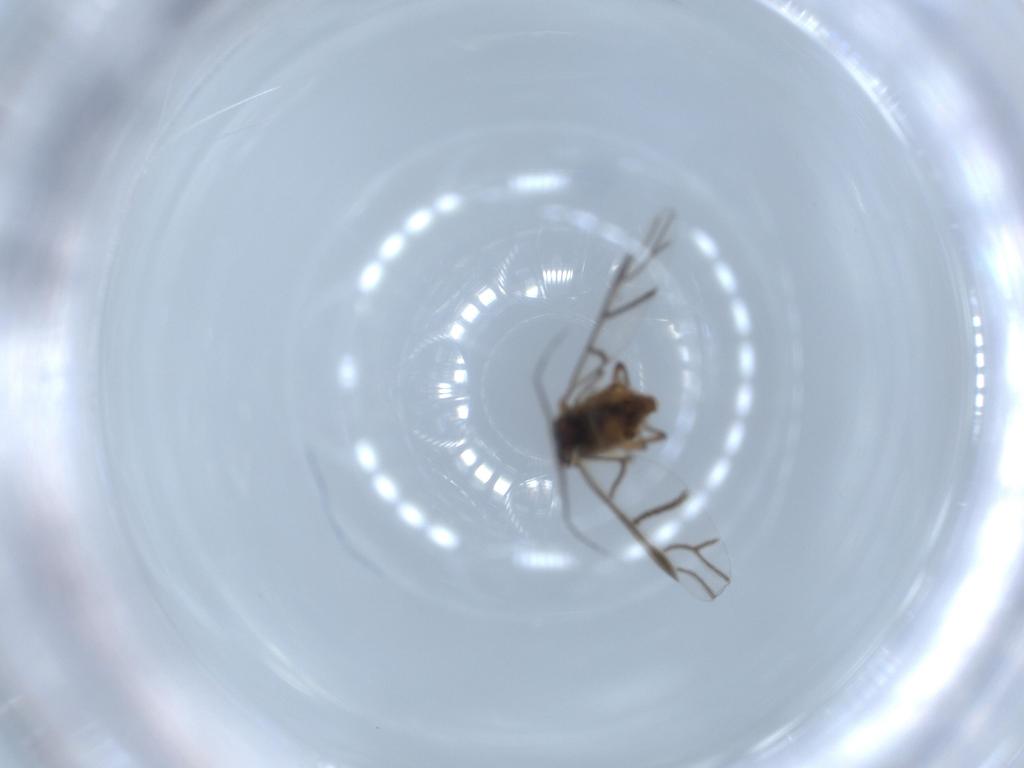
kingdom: Animalia
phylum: Arthropoda
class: Insecta
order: Hemiptera
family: Aphididae
